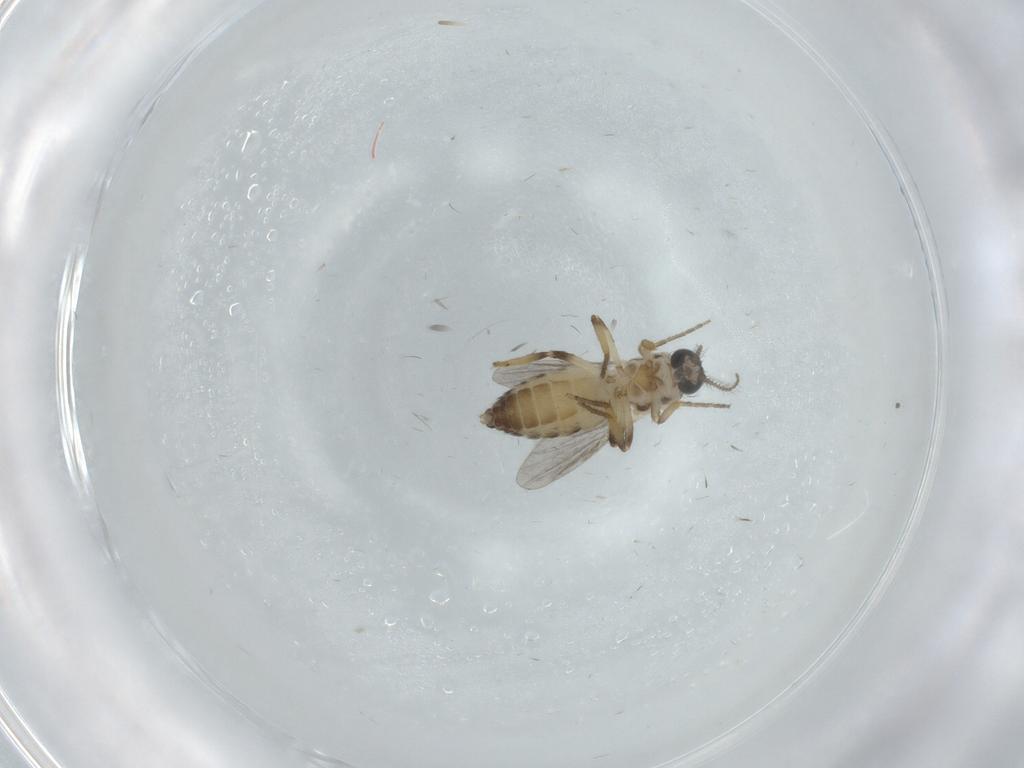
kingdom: Animalia
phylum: Arthropoda
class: Insecta
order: Diptera
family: Ceratopogonidae
